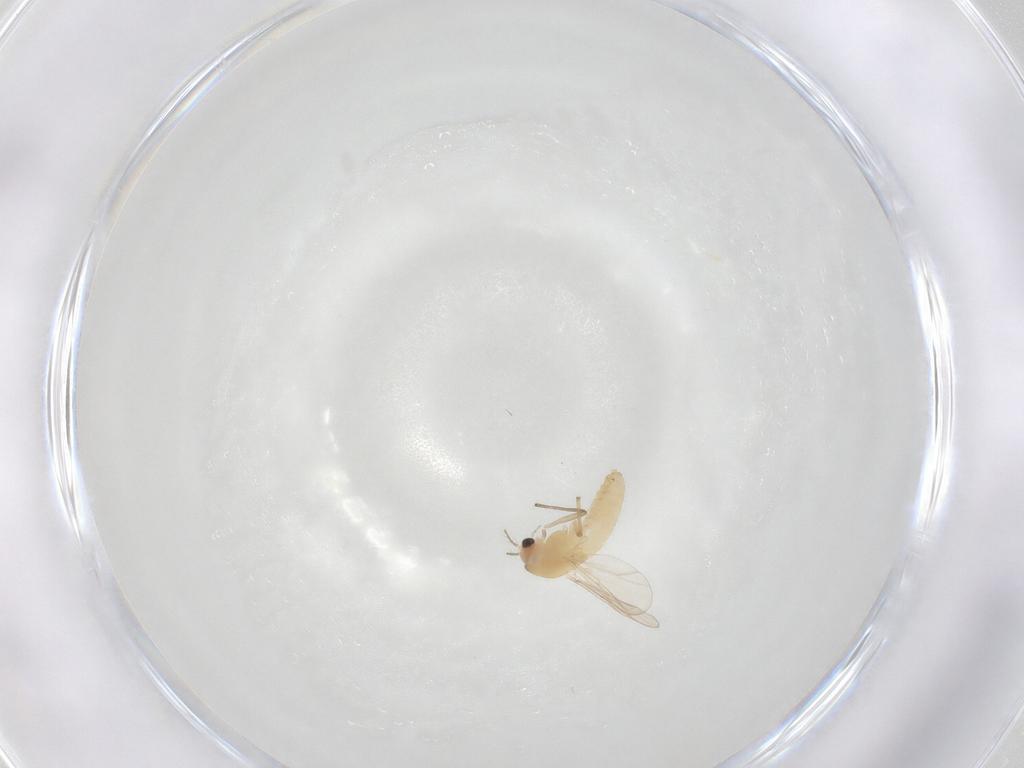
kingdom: Animalia
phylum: Arthropoda
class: Insecta
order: Diptera
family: Chironomidae
